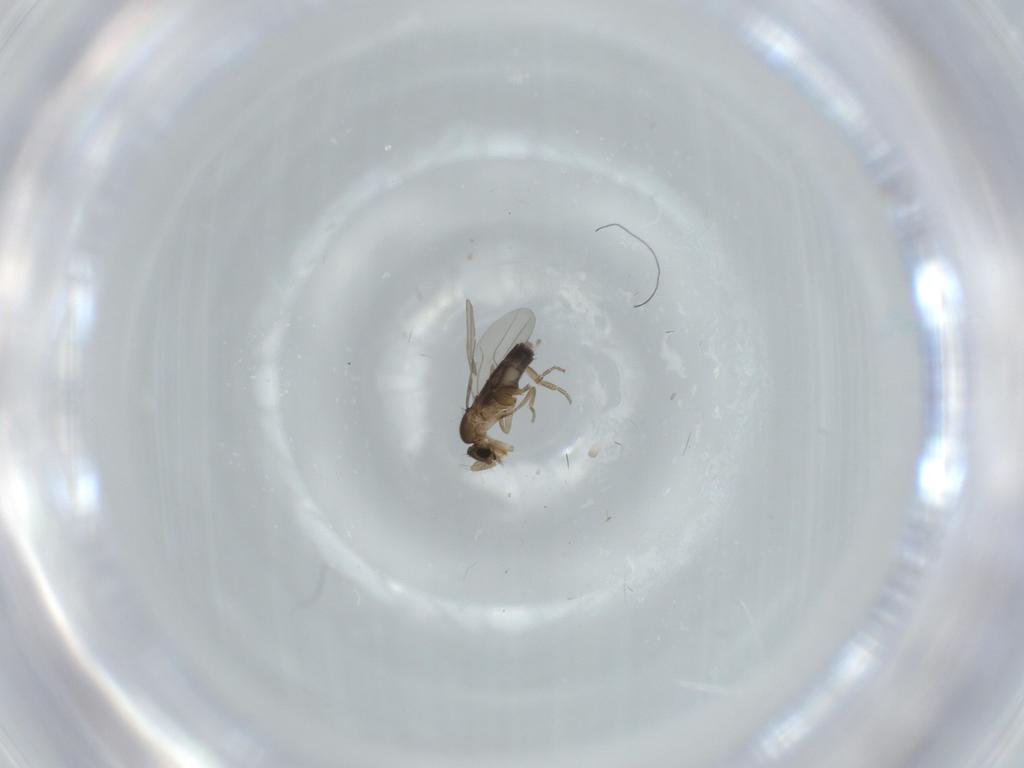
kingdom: Animalia
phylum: Arthropoda
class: Insecta
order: Diptera
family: Phoridae
